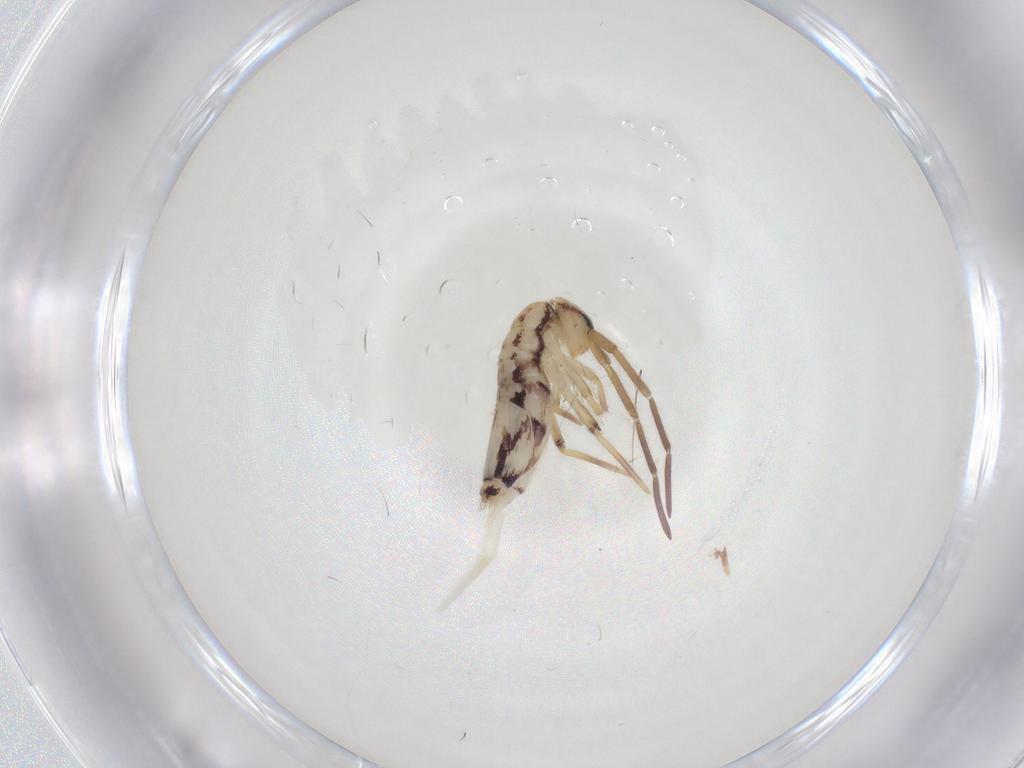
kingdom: Animalia
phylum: Arthropoda
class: Collembola
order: Entomobryomorpha
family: Entomobryidae
